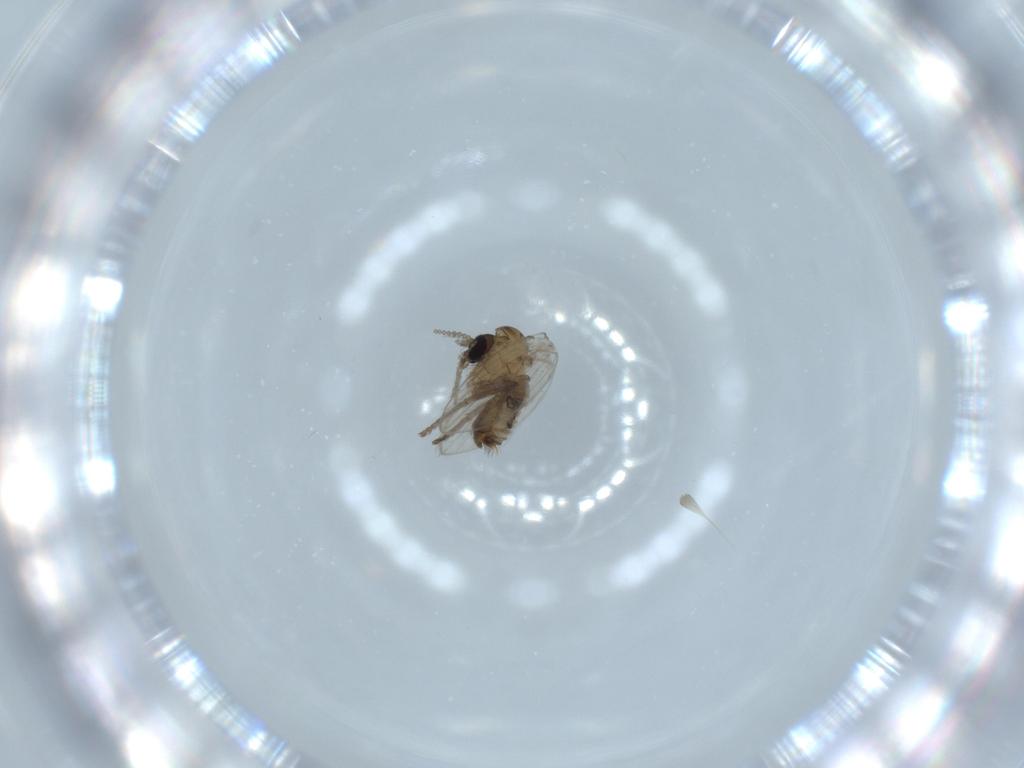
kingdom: Animalia
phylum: Arthropoda
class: Insecta
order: Diptera
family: Psychodidae
